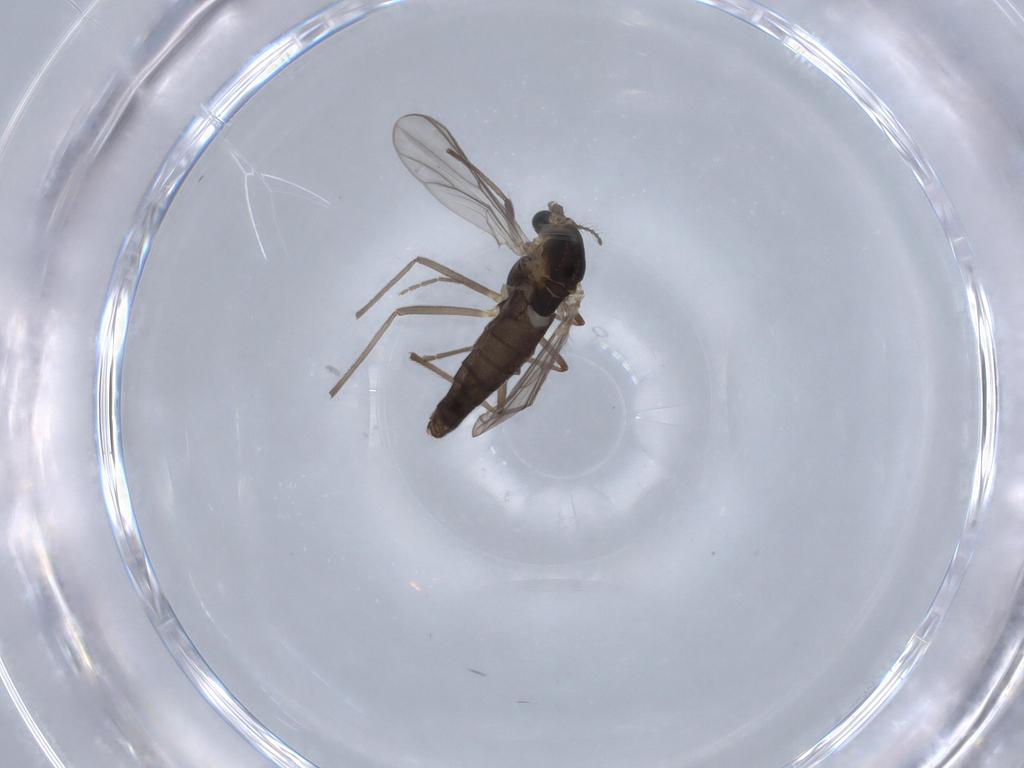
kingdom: Animalia
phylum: Arthropoda
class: Insecta
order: Diptera
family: Chironomidae
